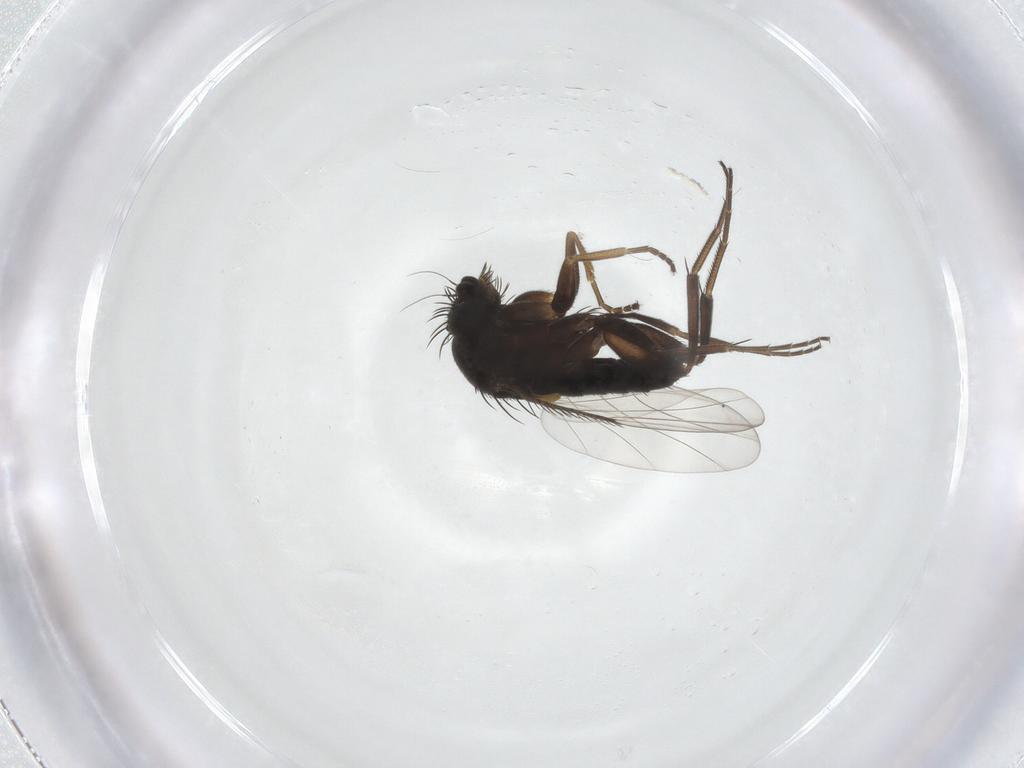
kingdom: Animalia
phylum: Arthropoda
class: Insecta
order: Diptera
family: Phoridae
